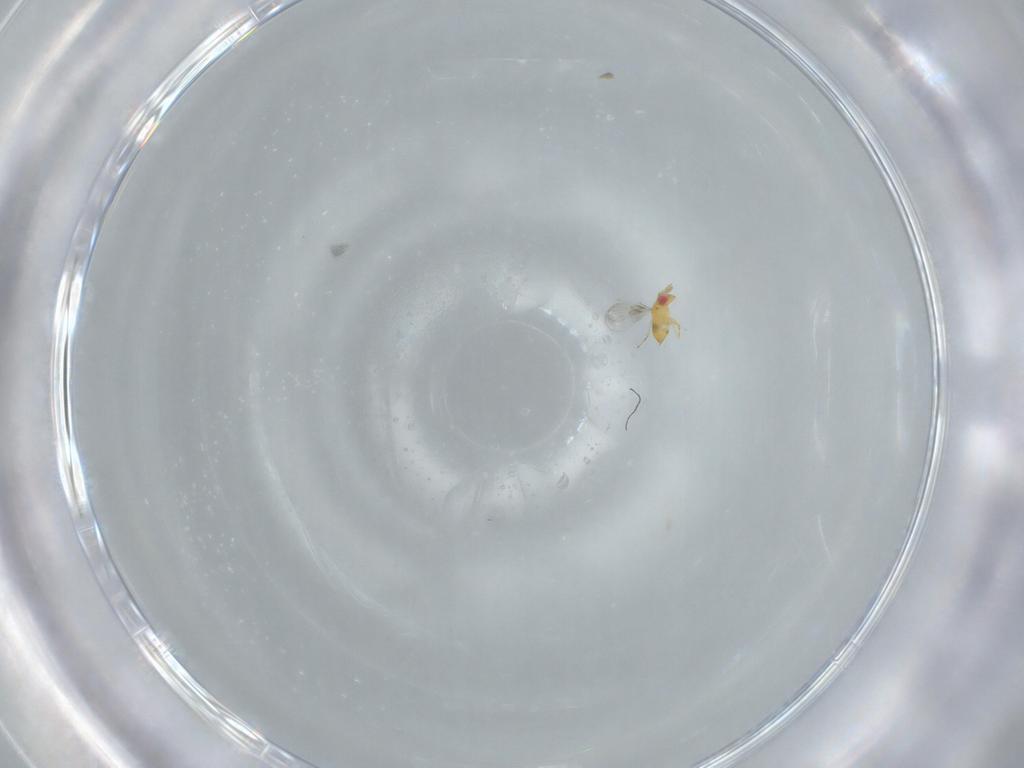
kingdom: Animalia
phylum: Arthropoda
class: Insecta
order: Hymenoptera
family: Trichogrammatidae
